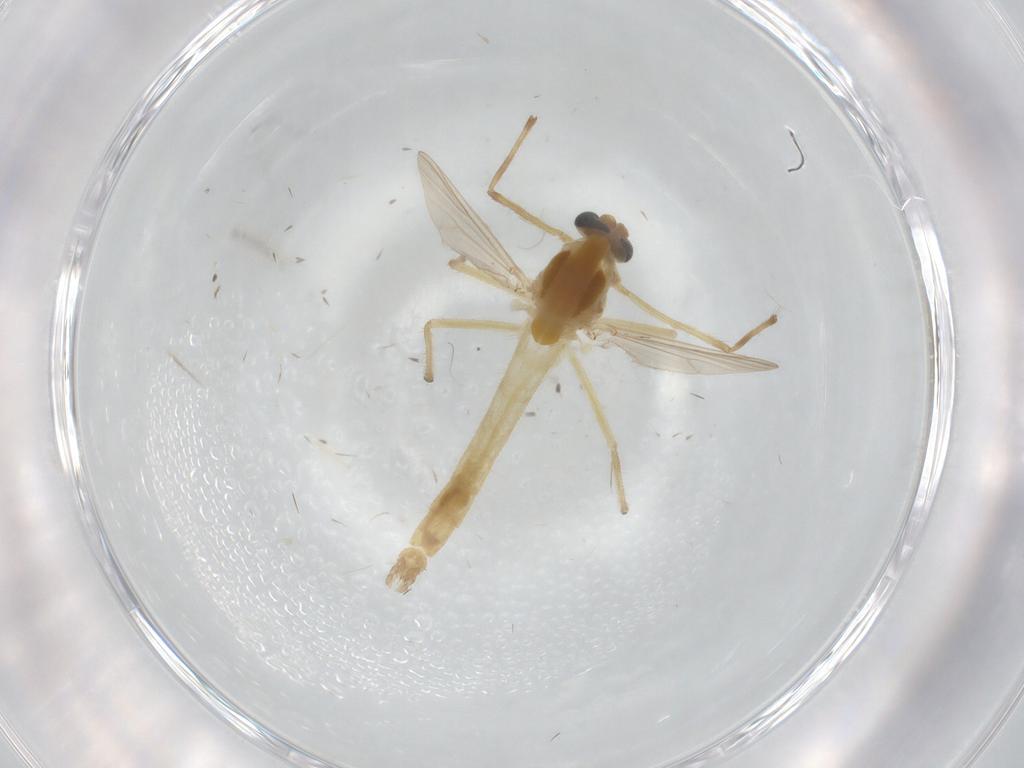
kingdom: Animalia
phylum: Arthropoda
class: Insecta
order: Diptera
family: Chironomidae
